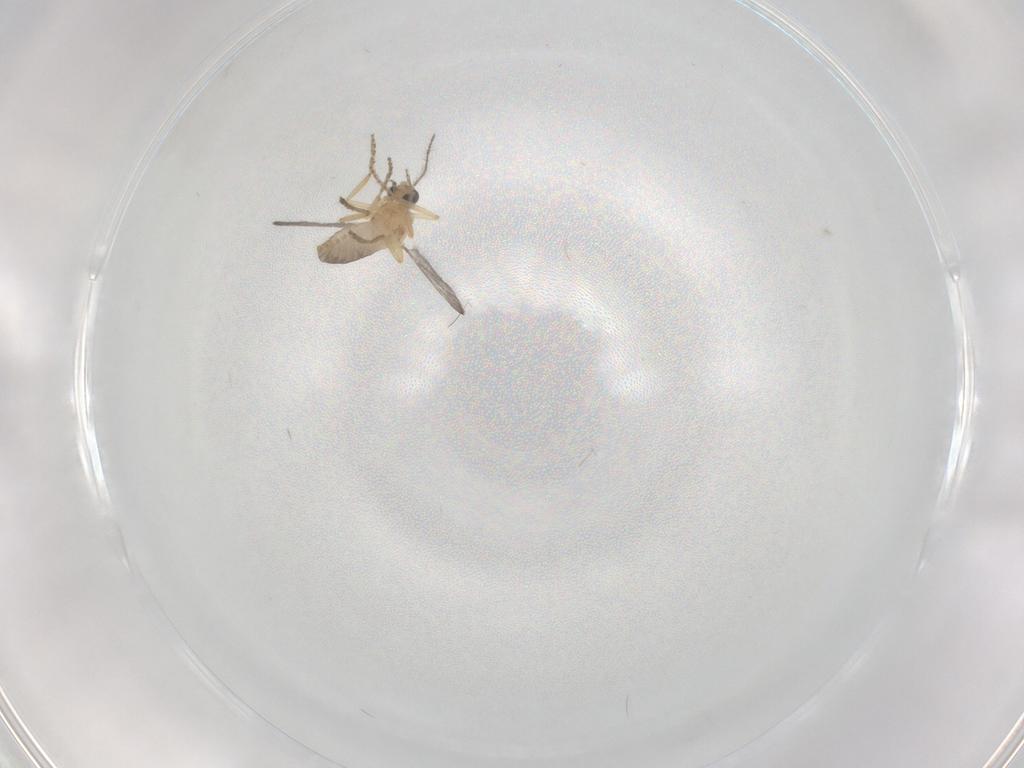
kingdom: Animalia
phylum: Arthropoda
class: Insecta
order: Diptera
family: Ceratopogonidae
